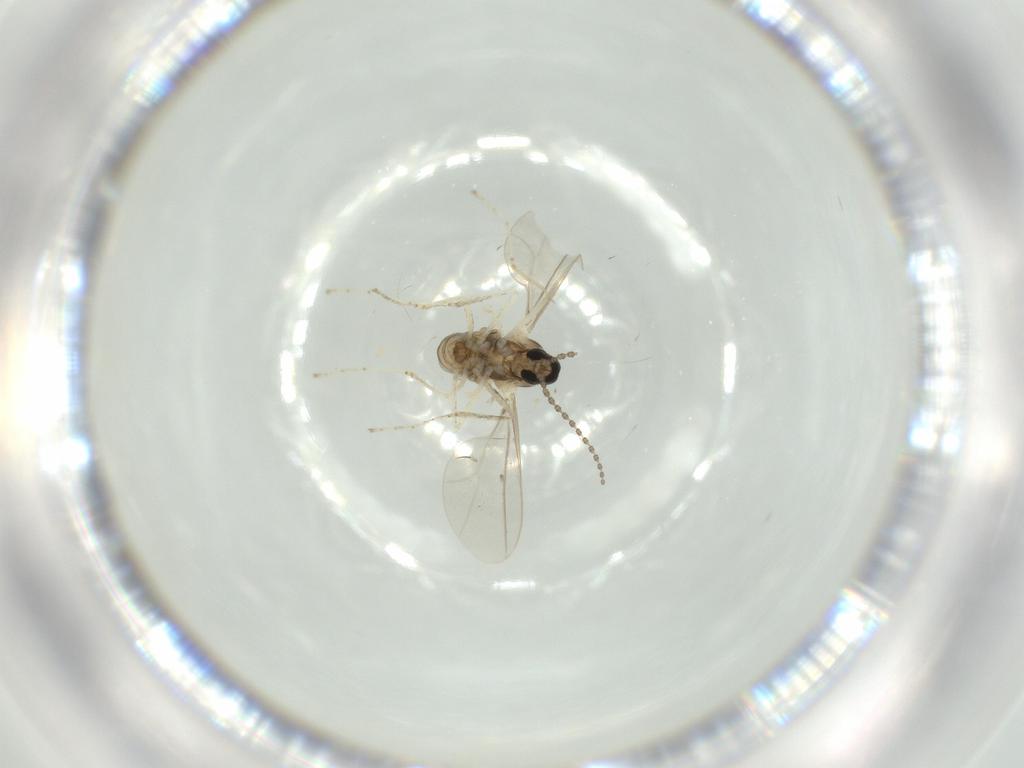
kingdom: Animalia
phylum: Arthropoda
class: Insecta
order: Diptera
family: Cecidomyiidae
